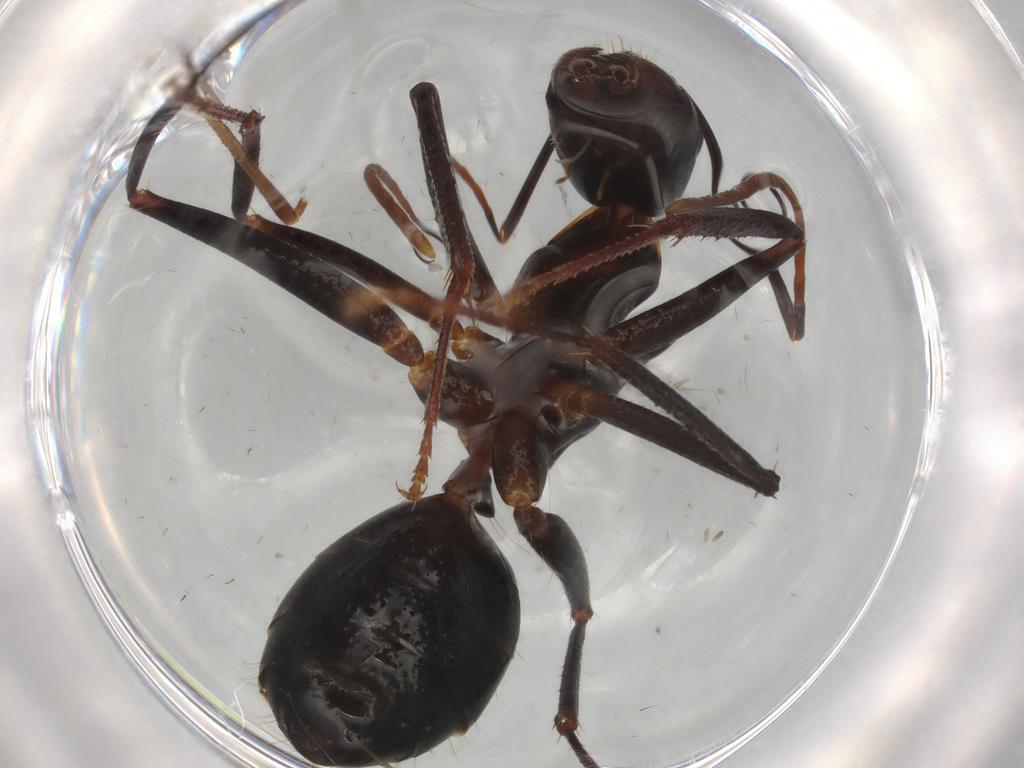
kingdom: Animalia
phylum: Arthropoda
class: Insecta
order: Hymenoptera
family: Formicidae
